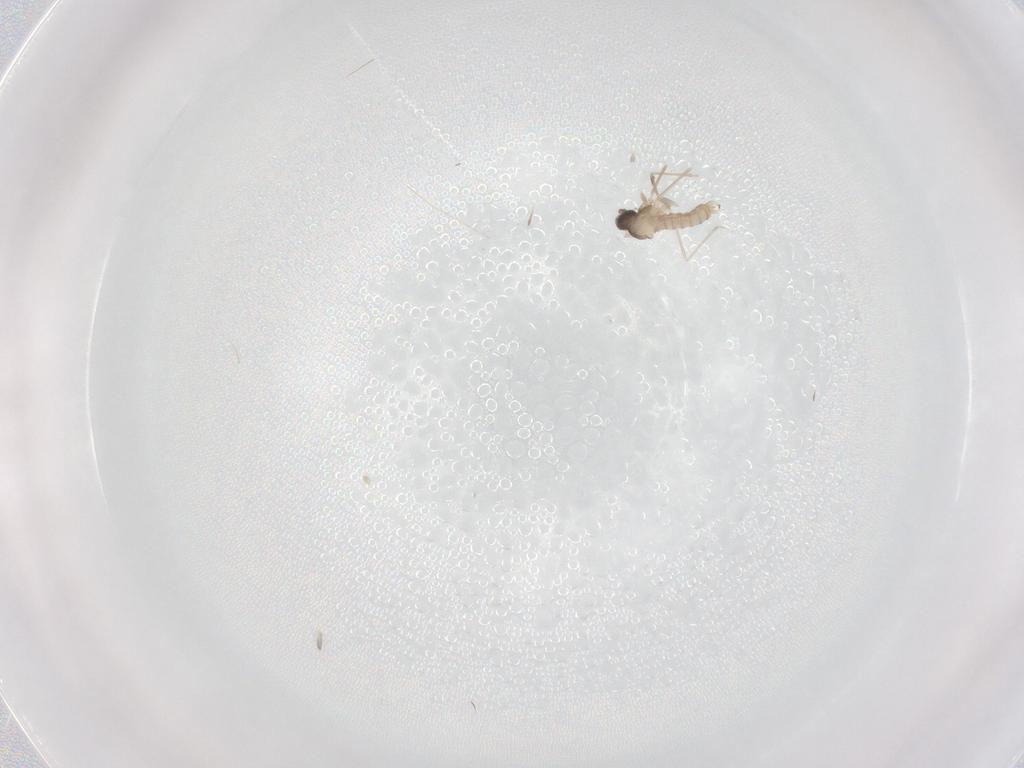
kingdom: Animalia
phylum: Arthropoda
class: Insecta
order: Diptera
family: Cecidomyiidae
